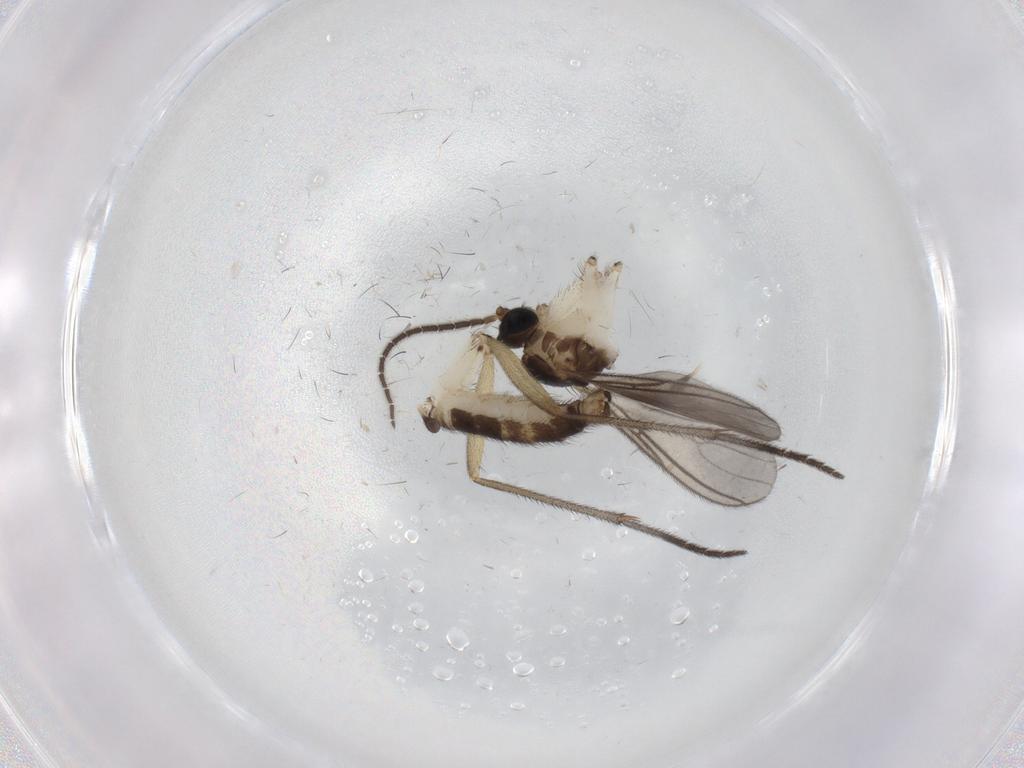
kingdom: Animalia
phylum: Arthropoda
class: Insecta
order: Diptera
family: Sciaridae
